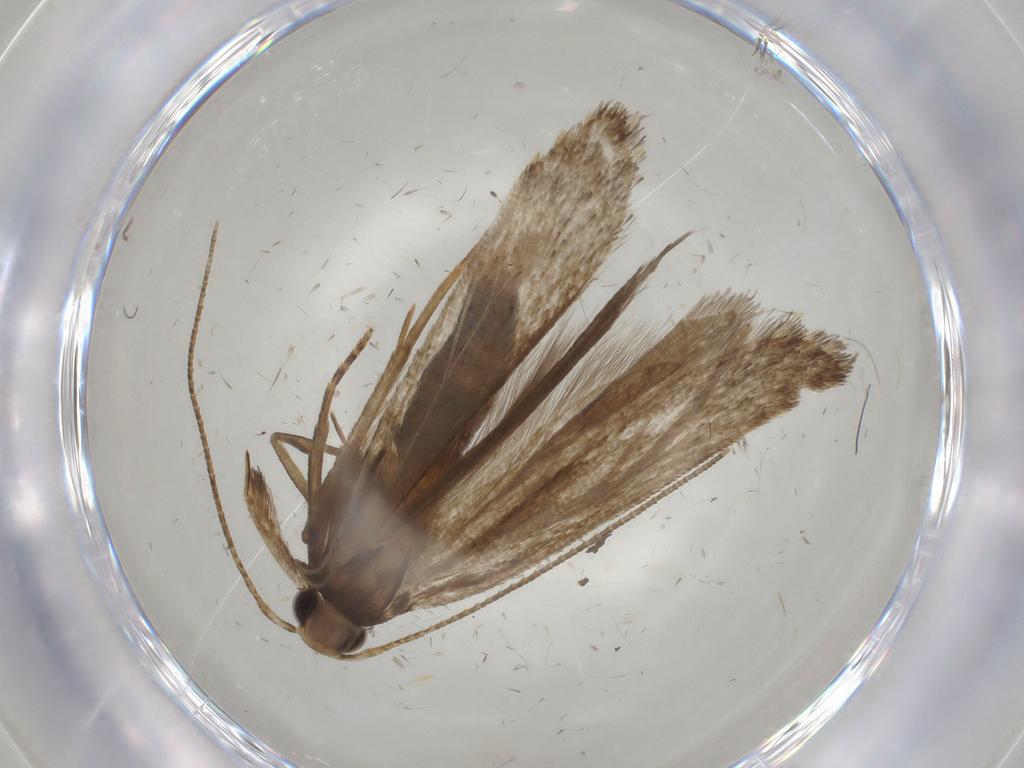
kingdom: Animalia
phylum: Arthropoda
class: Insecta
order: Lepidoptera
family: Gelechiidae
